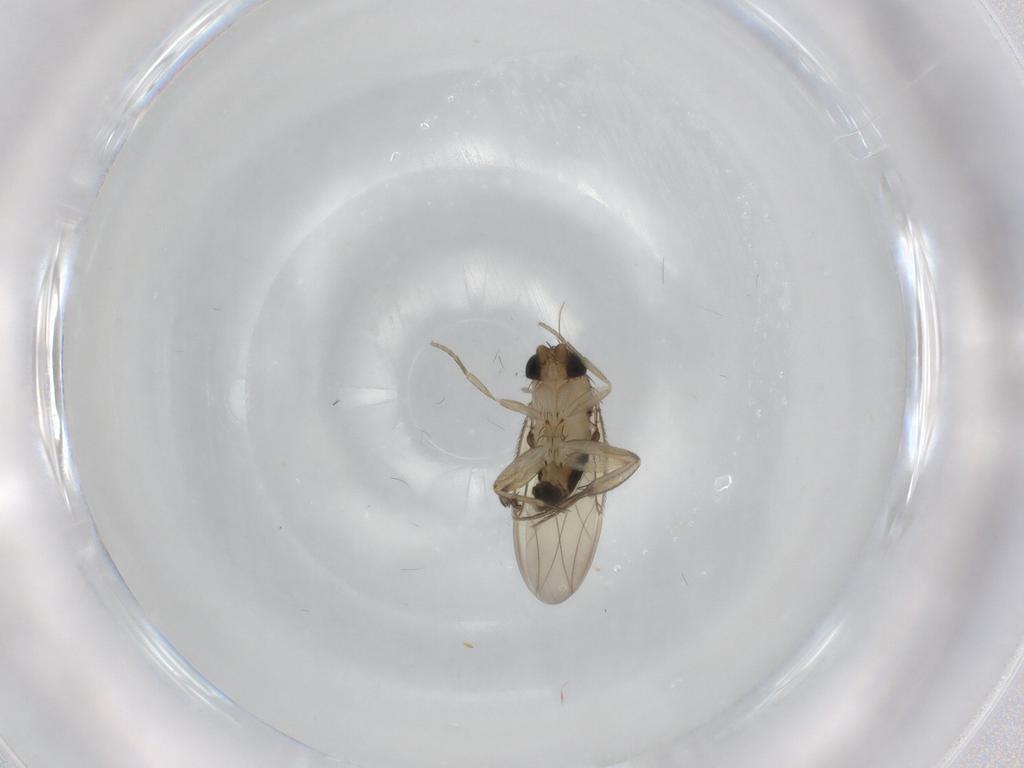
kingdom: Animalia
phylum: Arthropoda
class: Insecta
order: Diptera
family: Phoridae
